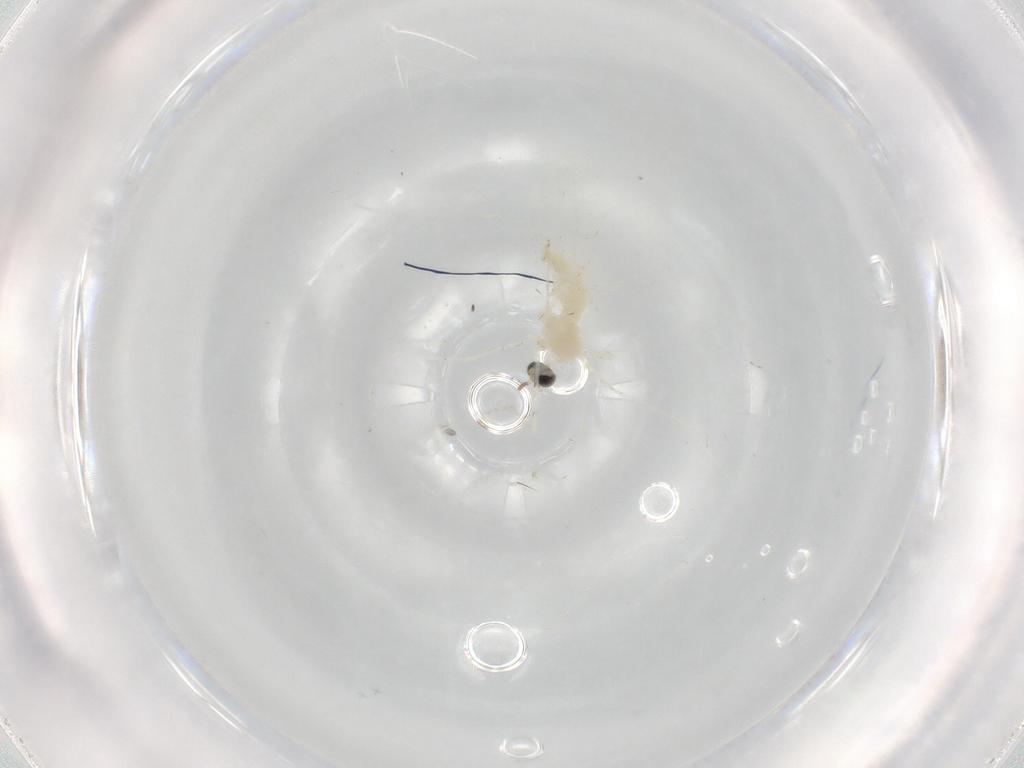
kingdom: Animalia
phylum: Arthropoda
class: Insecta
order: Diptera
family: Cecidomyiidae
